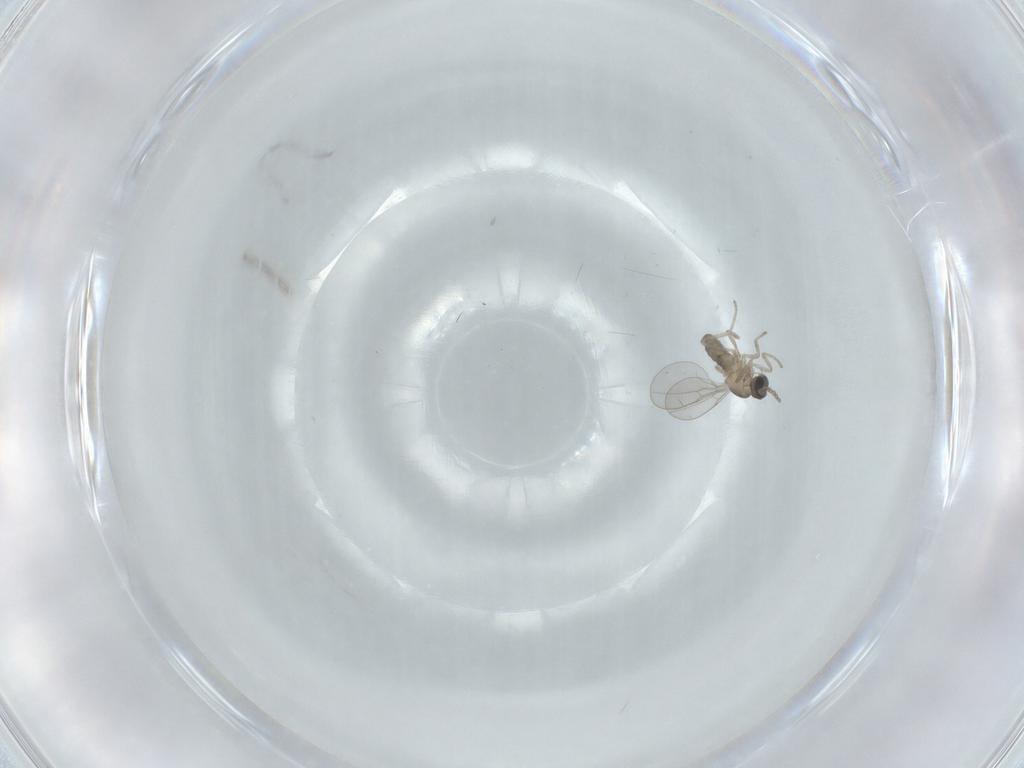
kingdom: Animalia
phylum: Arthropoda
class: Insecta
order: Diptera
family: Cecidomyiidae
